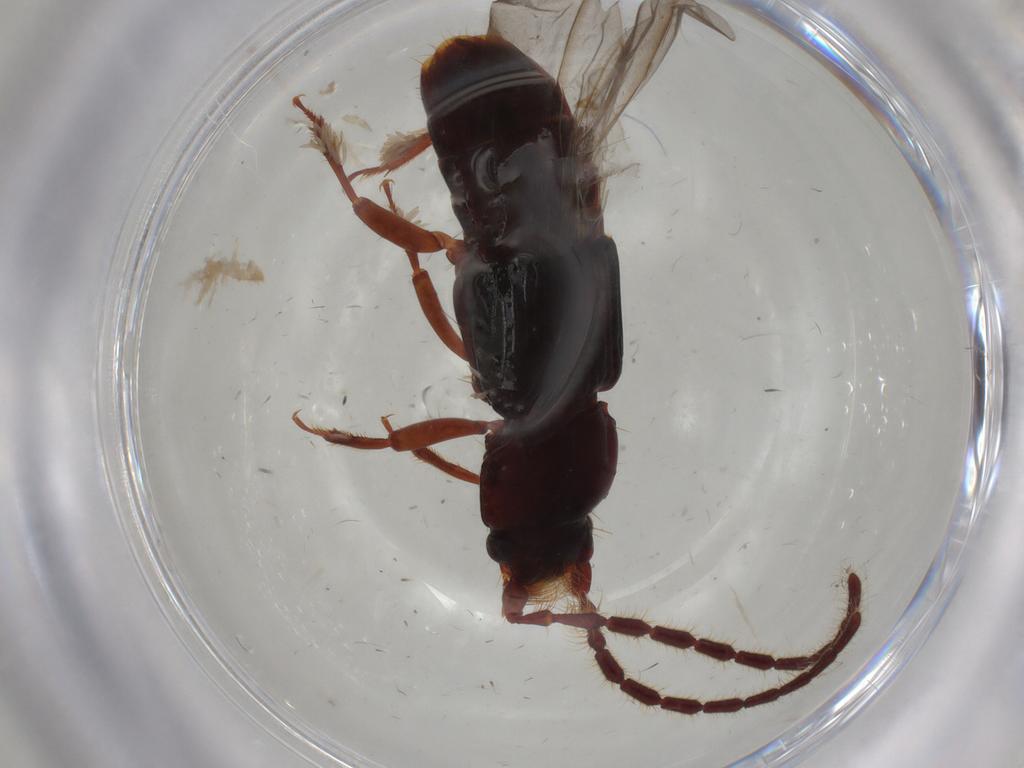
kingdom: Animalia
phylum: Arthropoda
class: Insecta
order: Coleoptera
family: Staphylinidae
